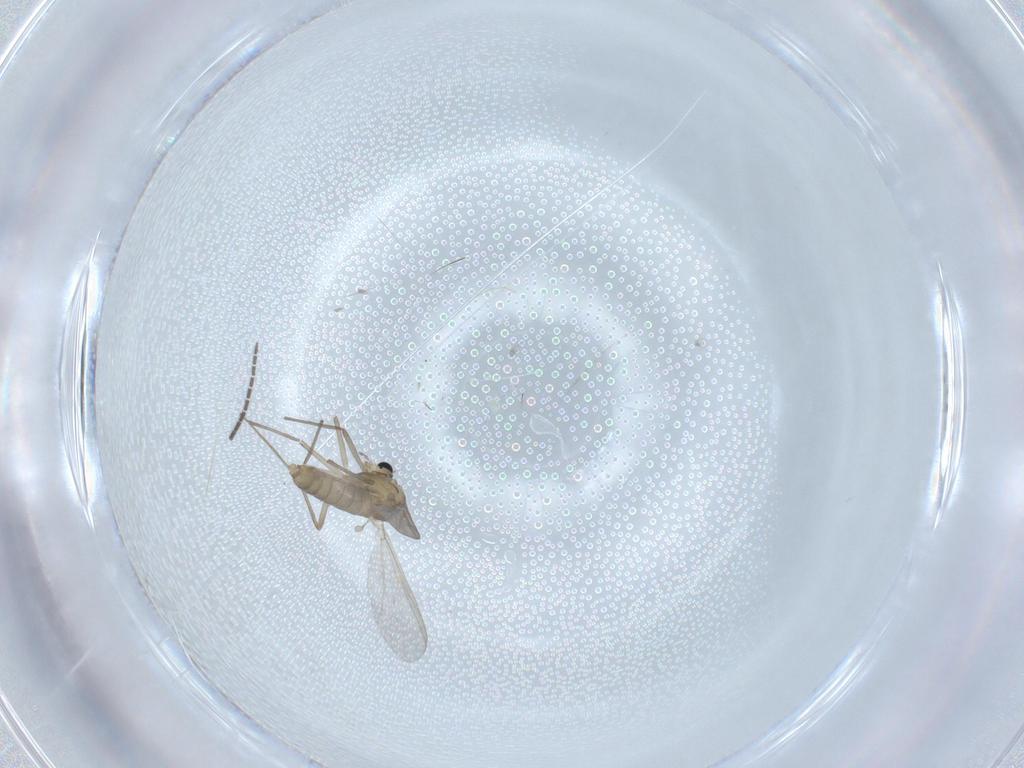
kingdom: Animalia
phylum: Arthropoda
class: Insecta
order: Diptera
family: Chironomidae
